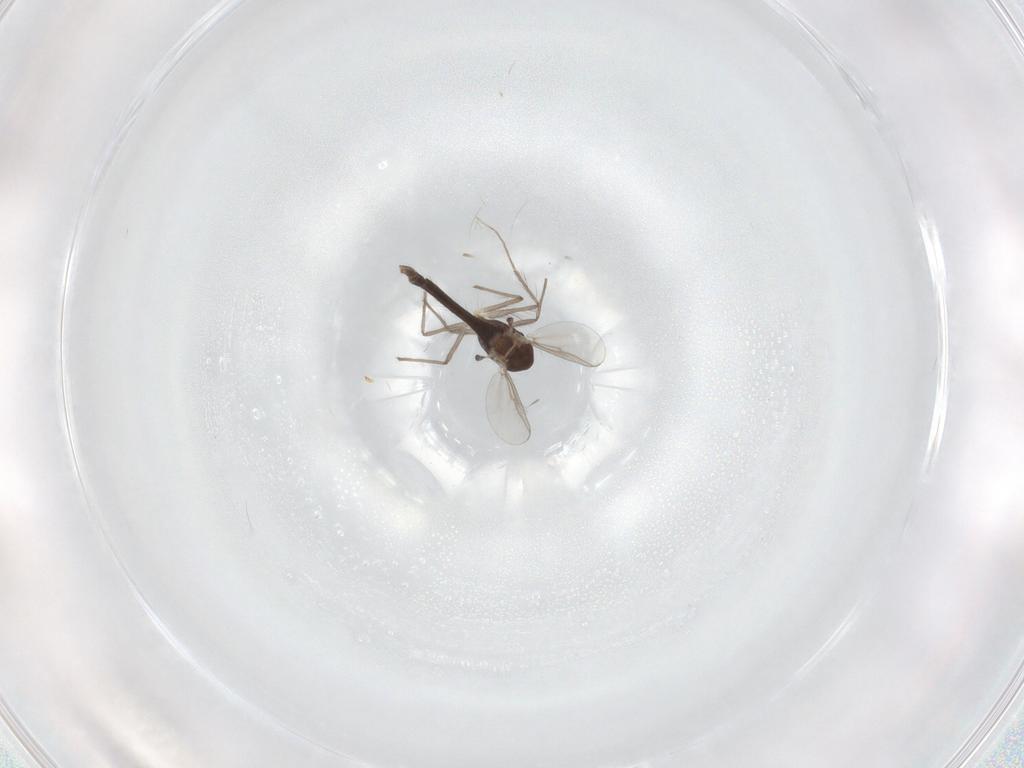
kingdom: Animalia
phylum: Arthropoda
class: Insecta
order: Diptera
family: Chironomidae
